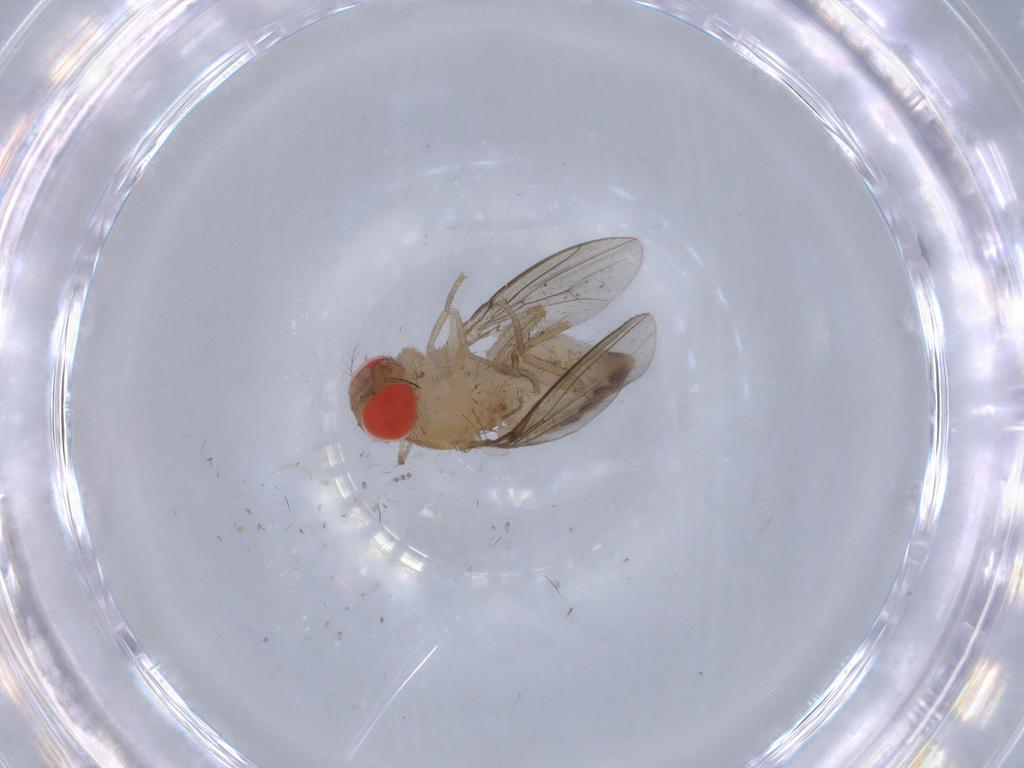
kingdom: Animalia
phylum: Arthropoda
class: Insecta
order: Diptera
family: Drosophilidae
